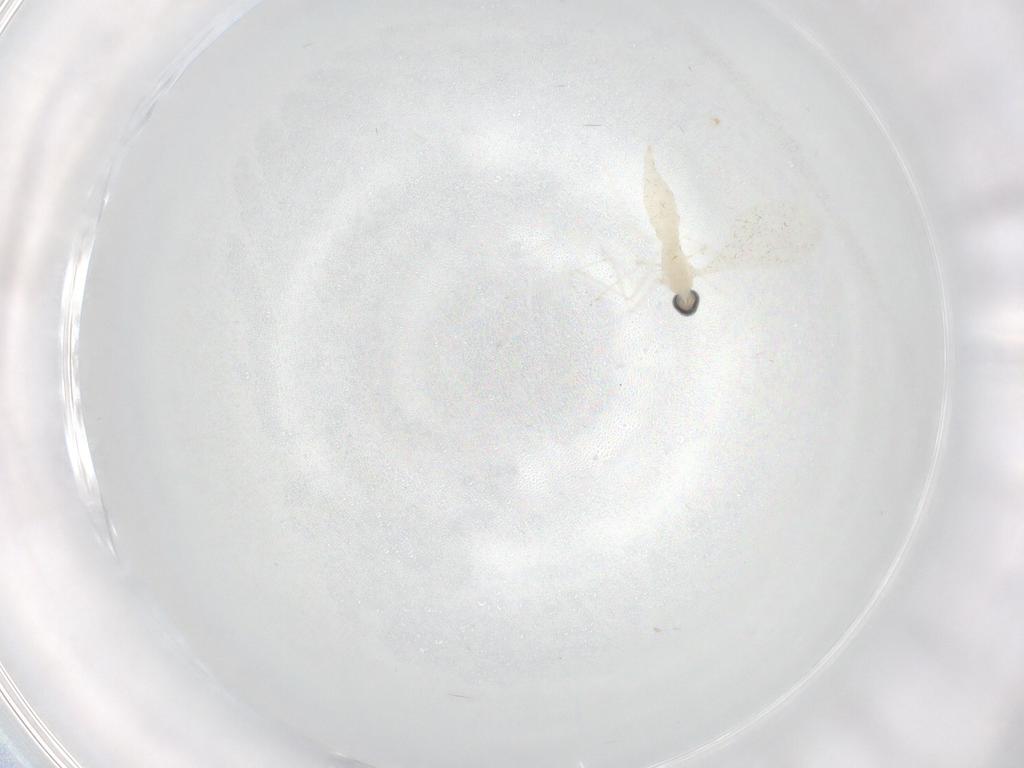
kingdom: Animalia
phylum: Arthropoda
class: Insecta
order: Diptera
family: Cecidomyiidae
